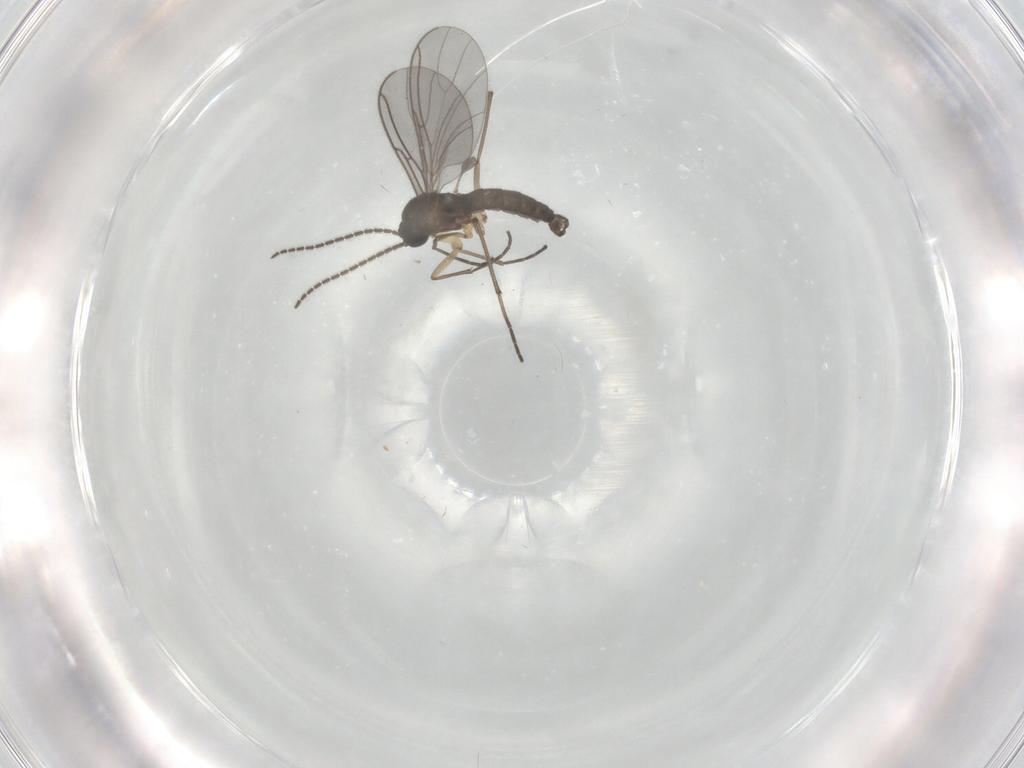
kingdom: Animalia
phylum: Arthropoda
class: Insecta
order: Diptera
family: Sciaridae
